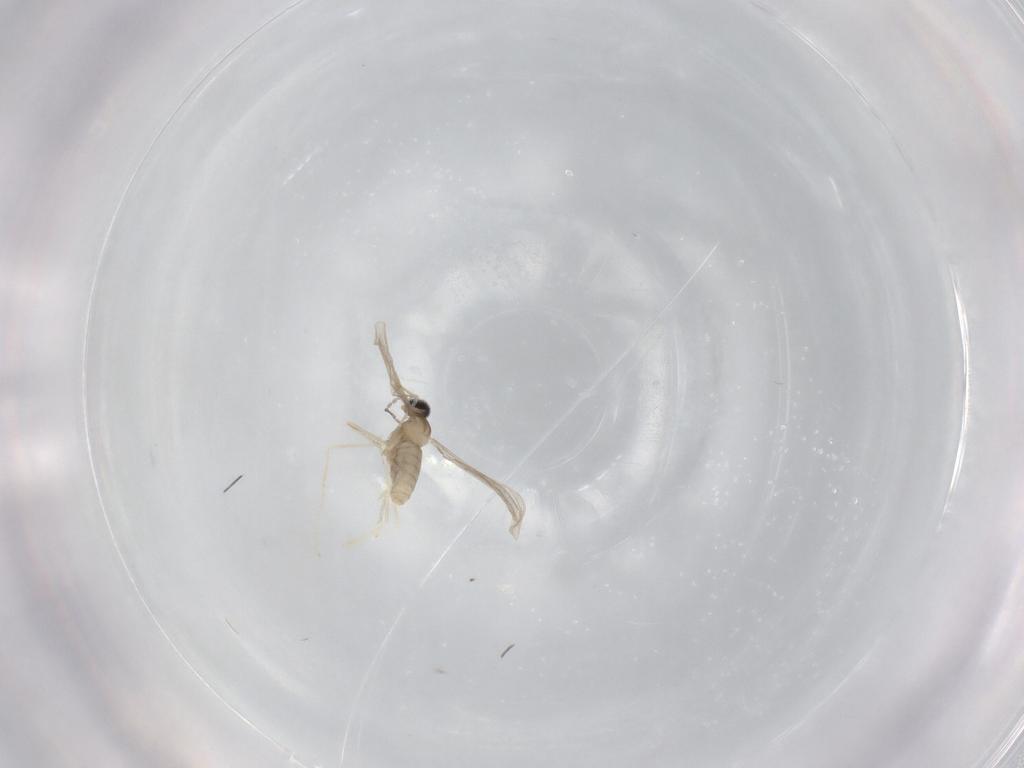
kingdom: Animalia
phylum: Arthropoda
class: Insecta
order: Diptera
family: Cecidomyiidae
